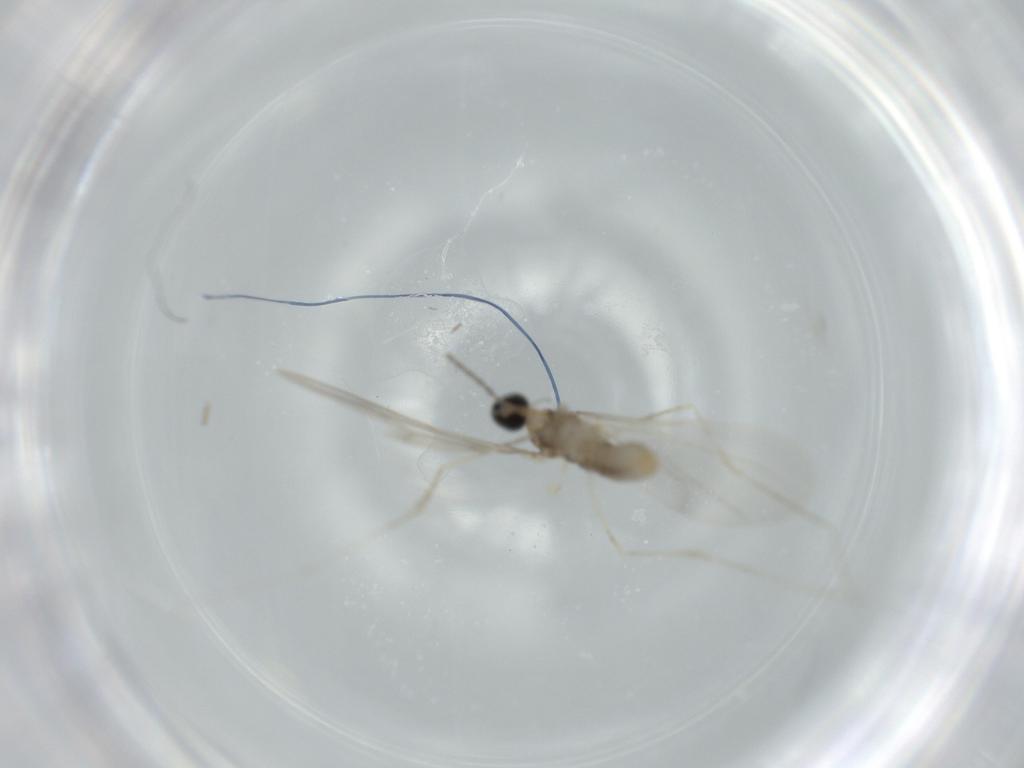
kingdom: Animalia
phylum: Arthropoda
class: Insecta
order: Diptera
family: Cecidomyiidae
